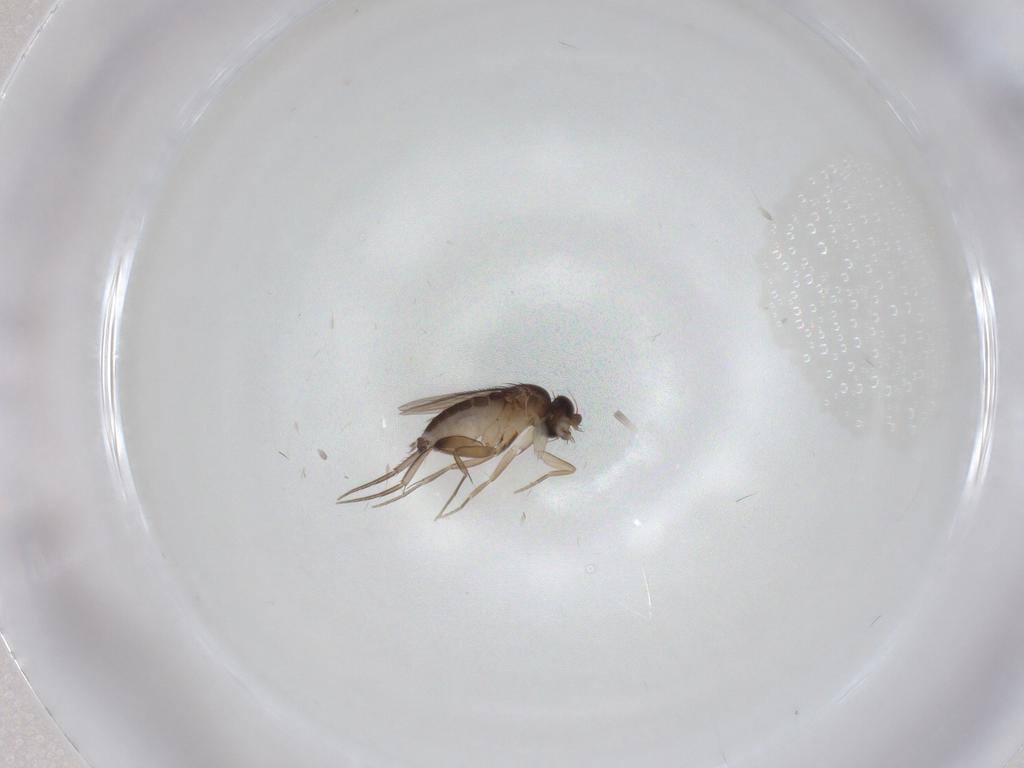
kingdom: Animalia
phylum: Arthropoda
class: Insecta
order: Diptera
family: Phoridae
